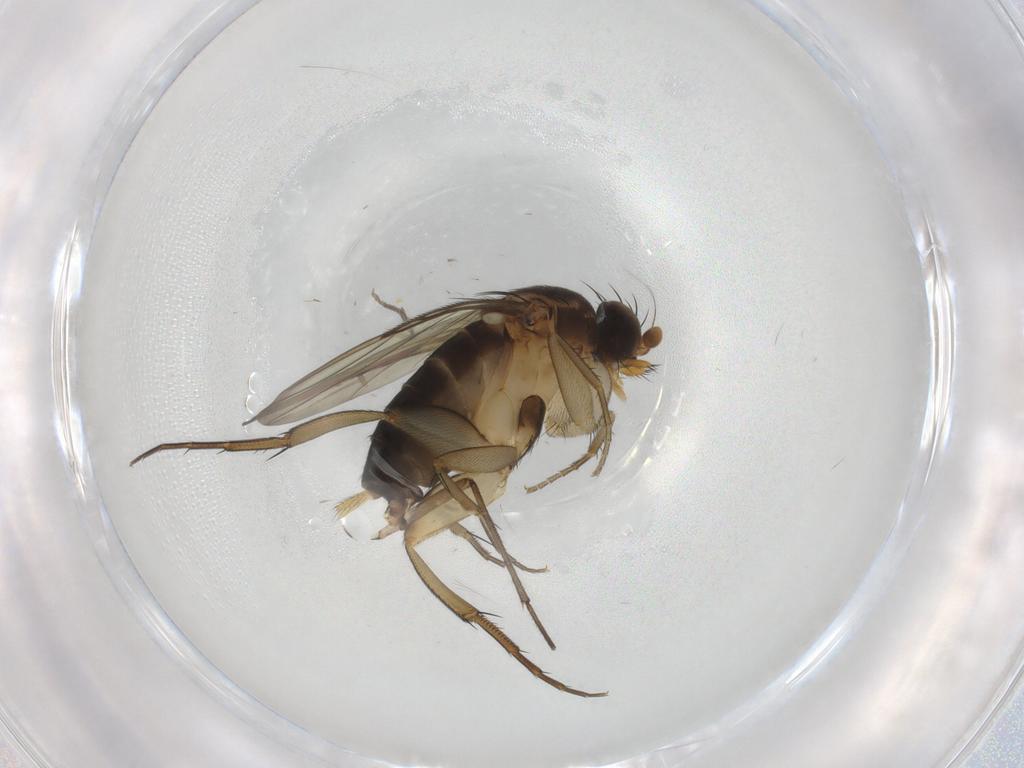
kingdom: Animalia
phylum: Arthropoda
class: Insecta
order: Diptera
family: Phoridae
